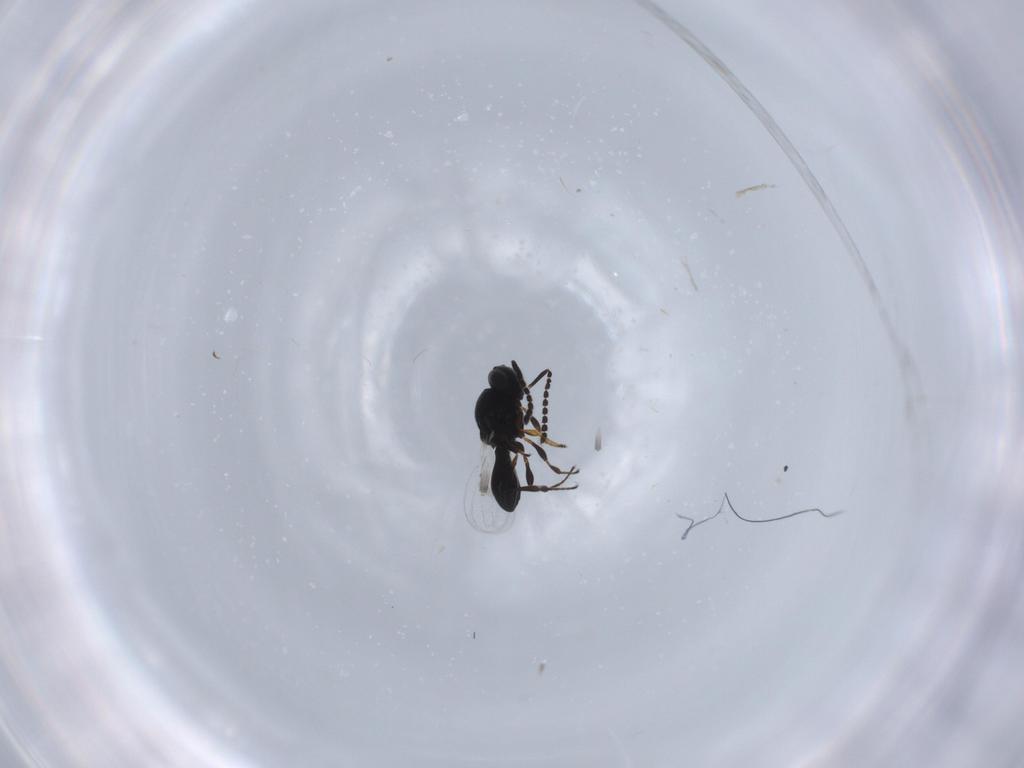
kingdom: Animalia
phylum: Arthropoda
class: Insecta
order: Hymenoptera
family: Platygastridae
